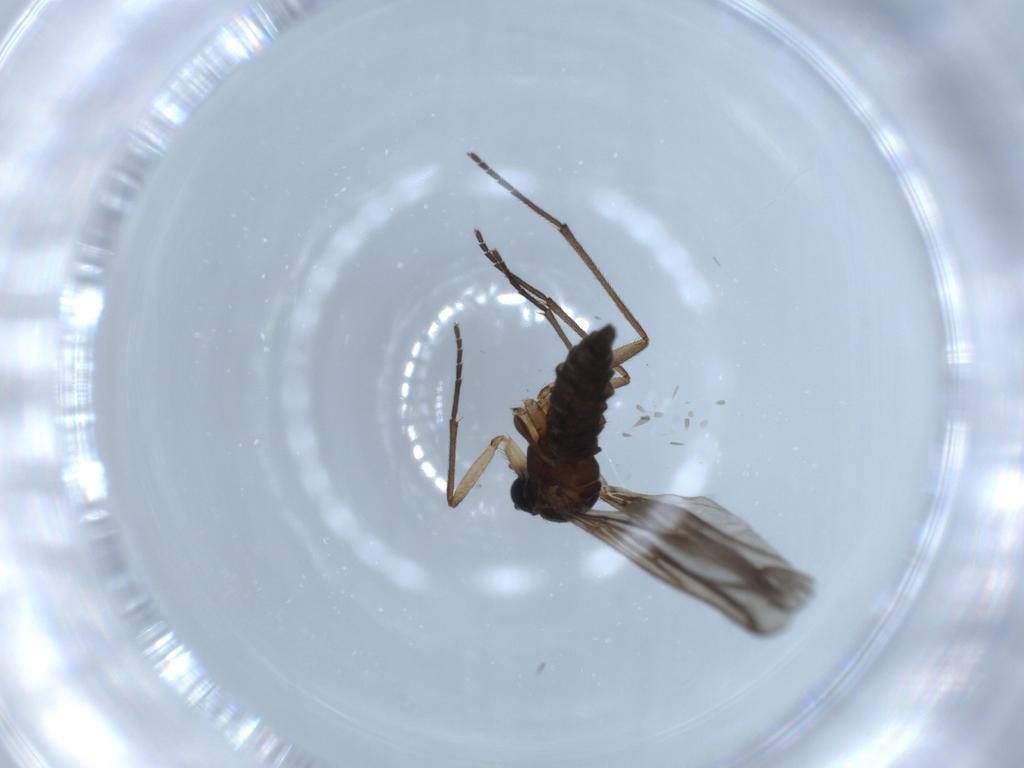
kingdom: Animalia
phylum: Arthropoda
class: Insecta
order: Diptera
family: Sciaridae
